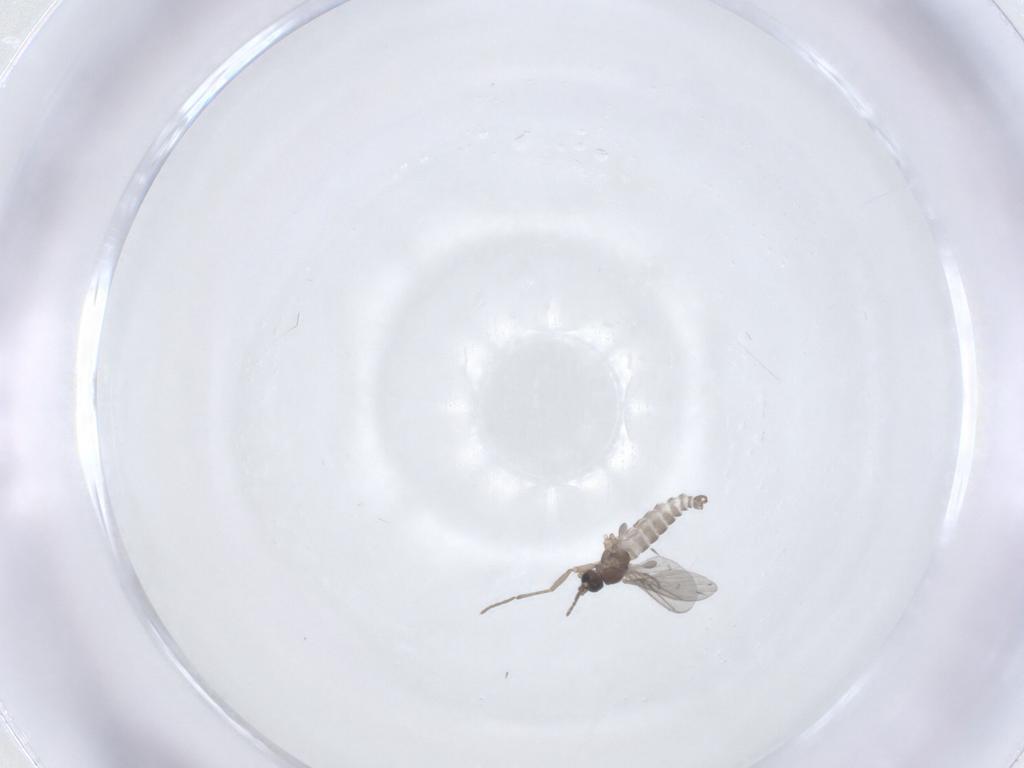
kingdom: Animalia
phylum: Arthropoda
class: Insecta
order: Diptera
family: Sciaridae
